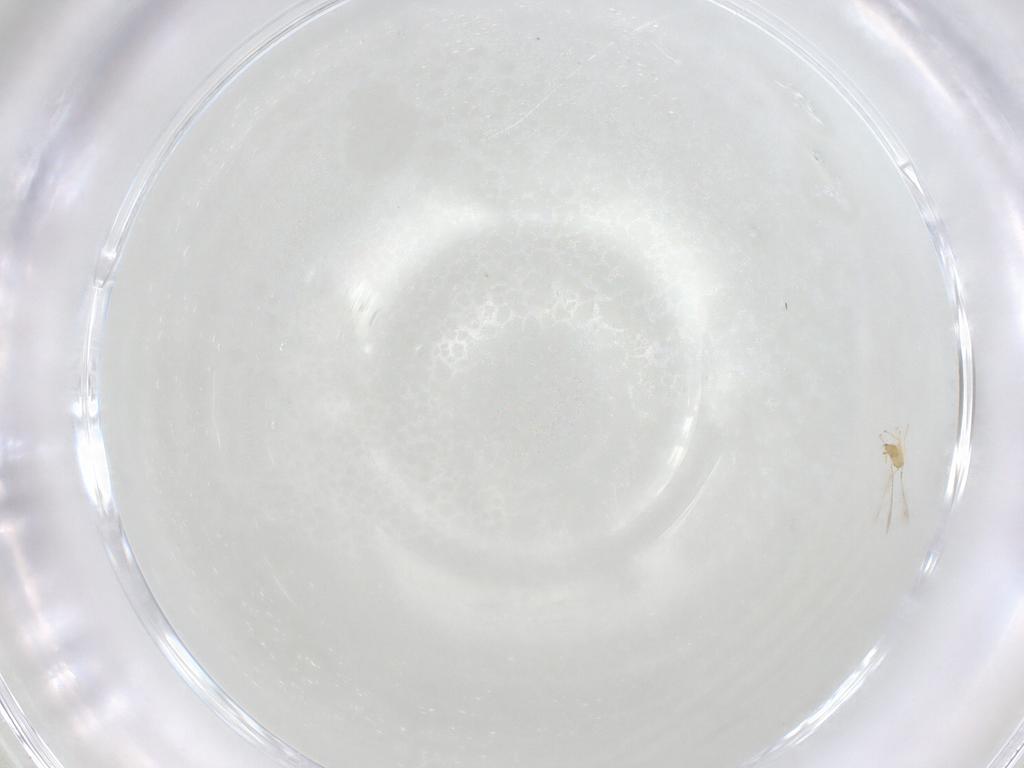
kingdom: Animalia
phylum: Arthropoda
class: Insecta
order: Hymenoptera
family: Mymaridae
